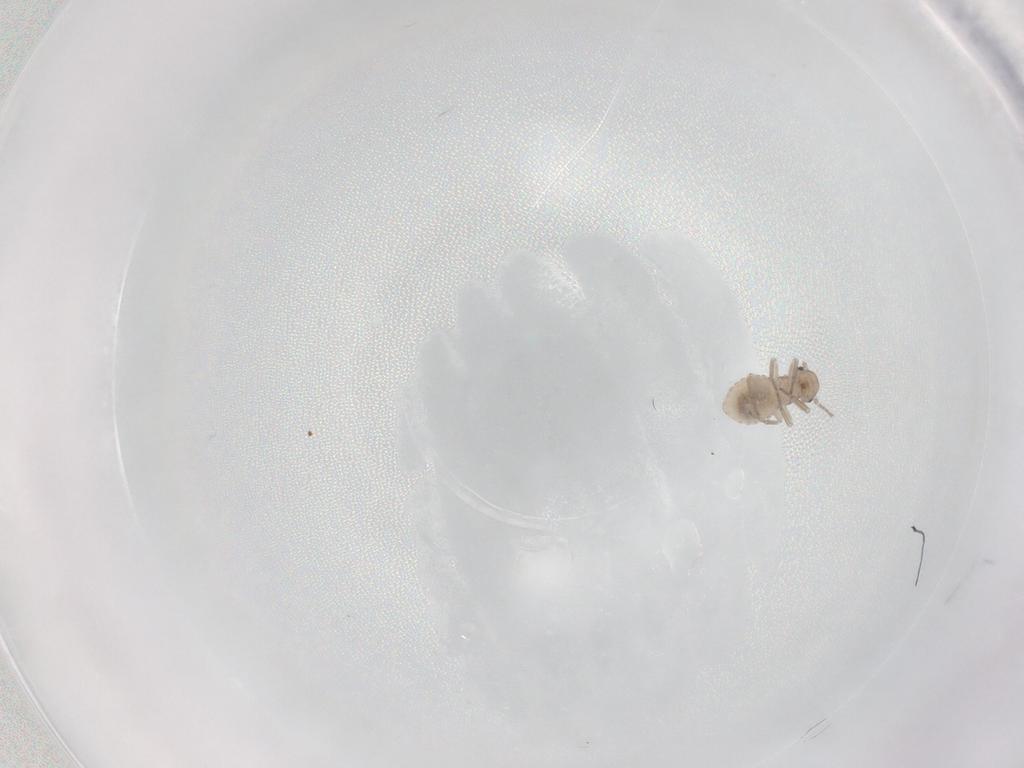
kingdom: Animalia
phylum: Arthropoda
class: Insecta
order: Psocodea
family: Myopsocidae
